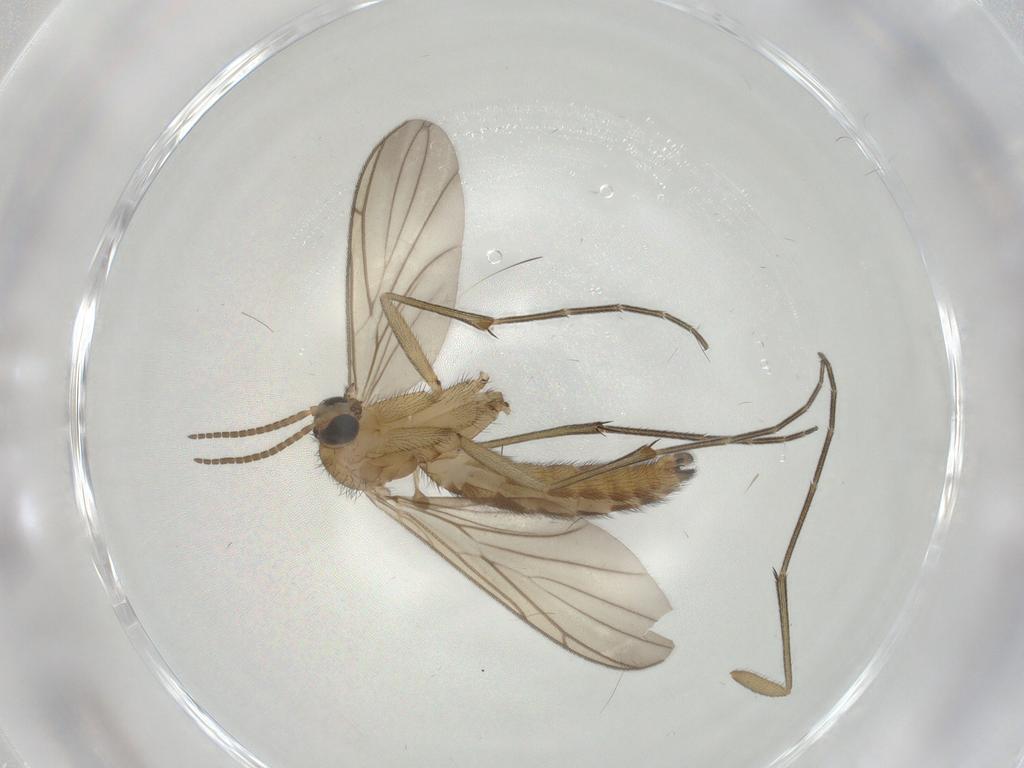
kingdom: Animalia
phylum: Arthropoda
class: Insecta
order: Diptera
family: Keroplatidae
